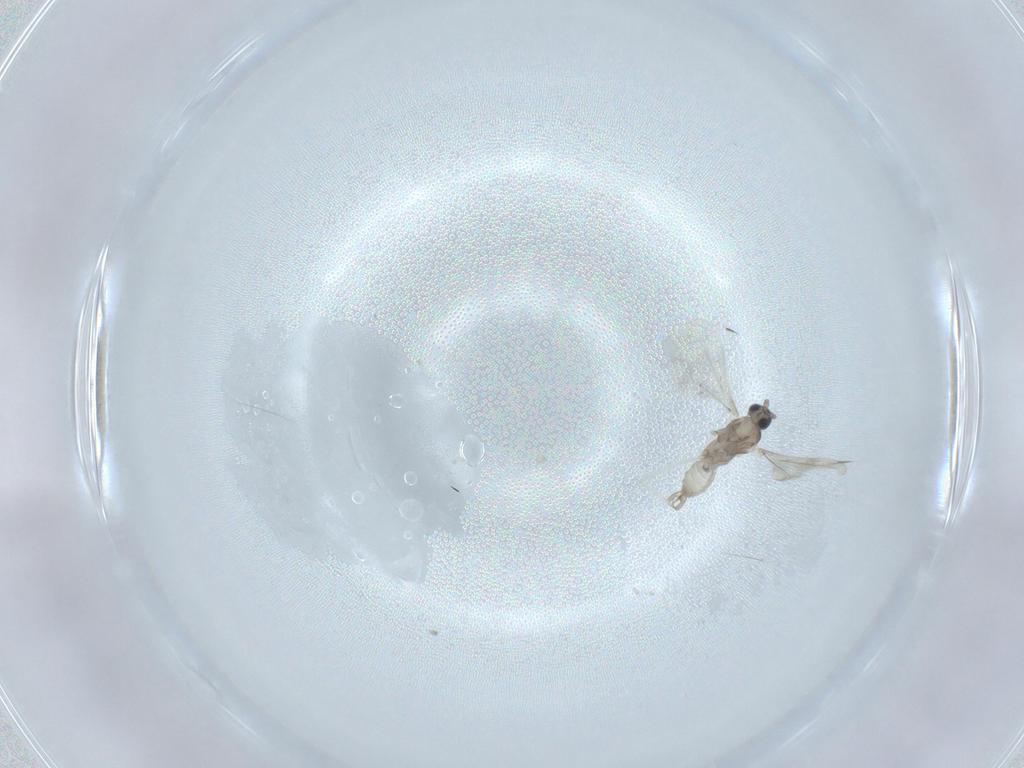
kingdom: Animalia
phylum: Arthropoda
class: Insecta
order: Diptera
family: Cecidomyiidae
